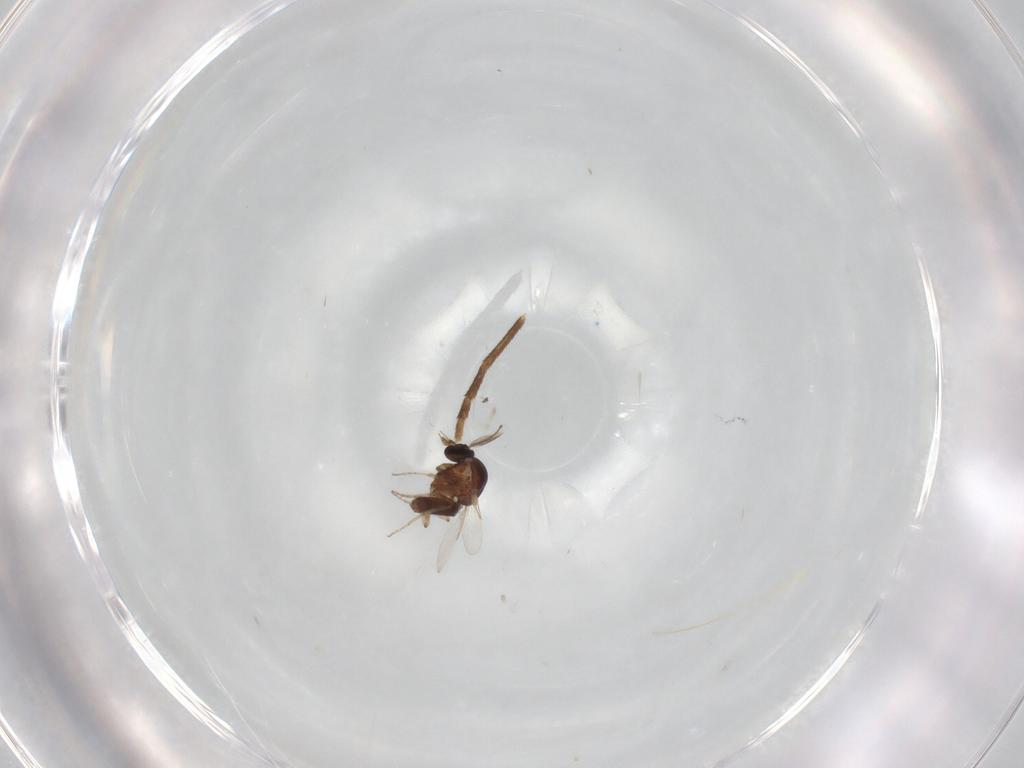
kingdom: Animalia
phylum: Arthropoda
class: Insecta
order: Diptera
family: Ceratopogonidae
